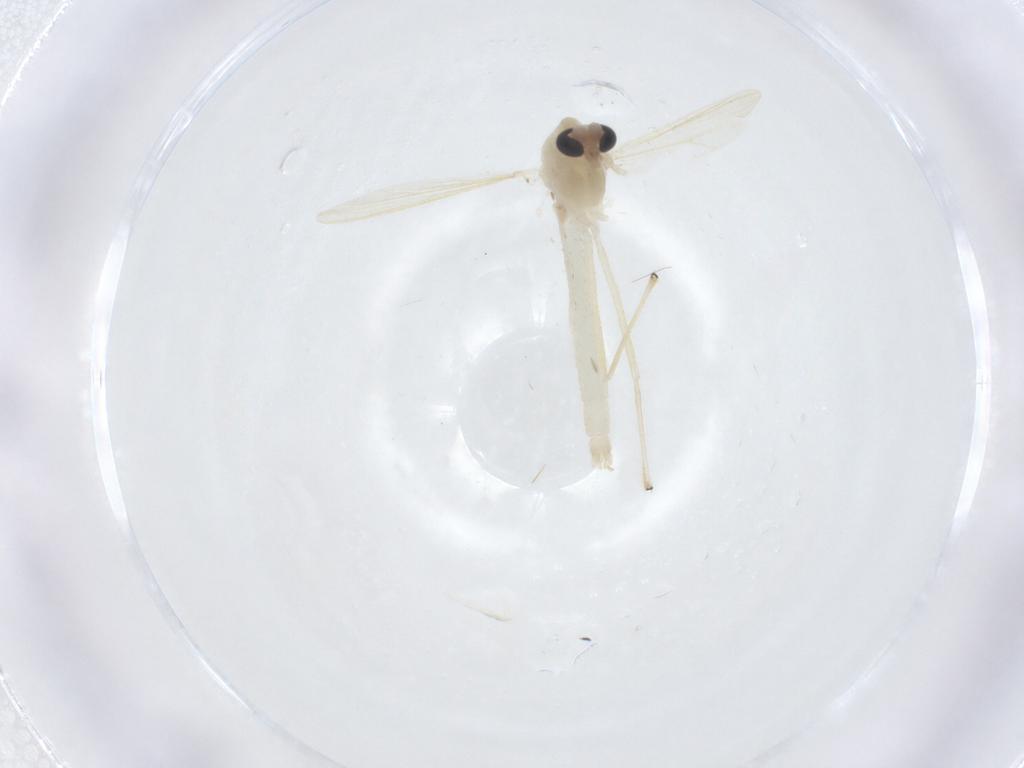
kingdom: Animalia
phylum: Arthropoda
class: Insecta
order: Diptera
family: Chironomidae
